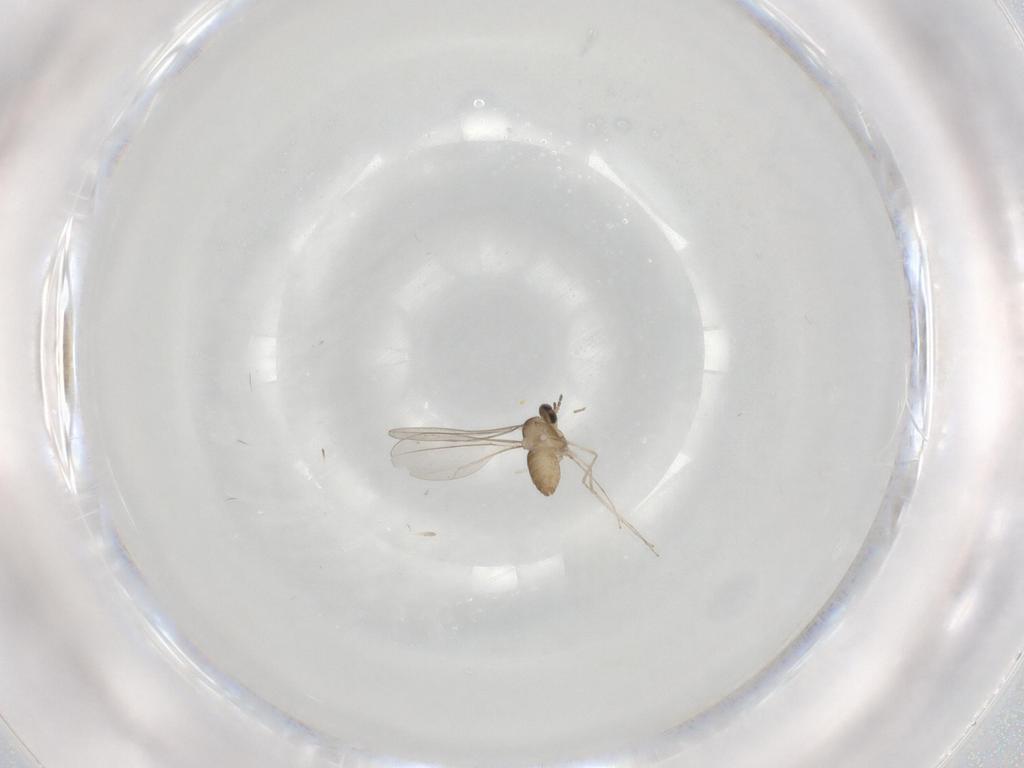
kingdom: Animalia
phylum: Arthropoda
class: Insecta
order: Diptera
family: Cecidomyiidae
